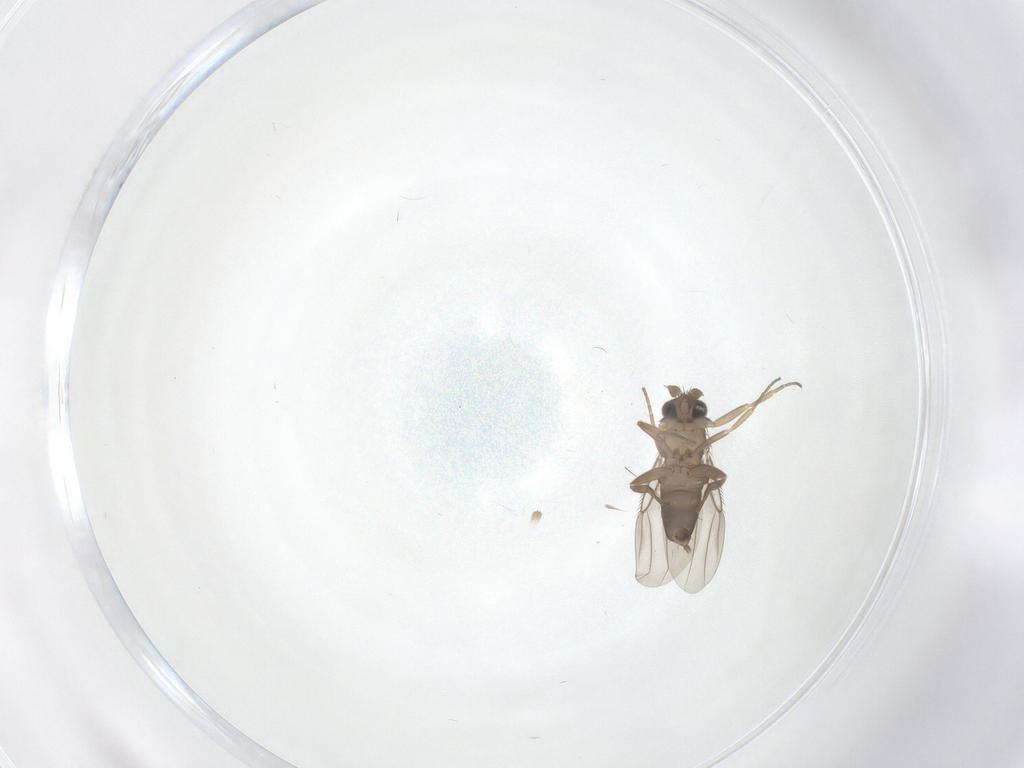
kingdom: Animalia
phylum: Arthropoda
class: Insecta
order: Diptera
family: Cecidomyiidae
